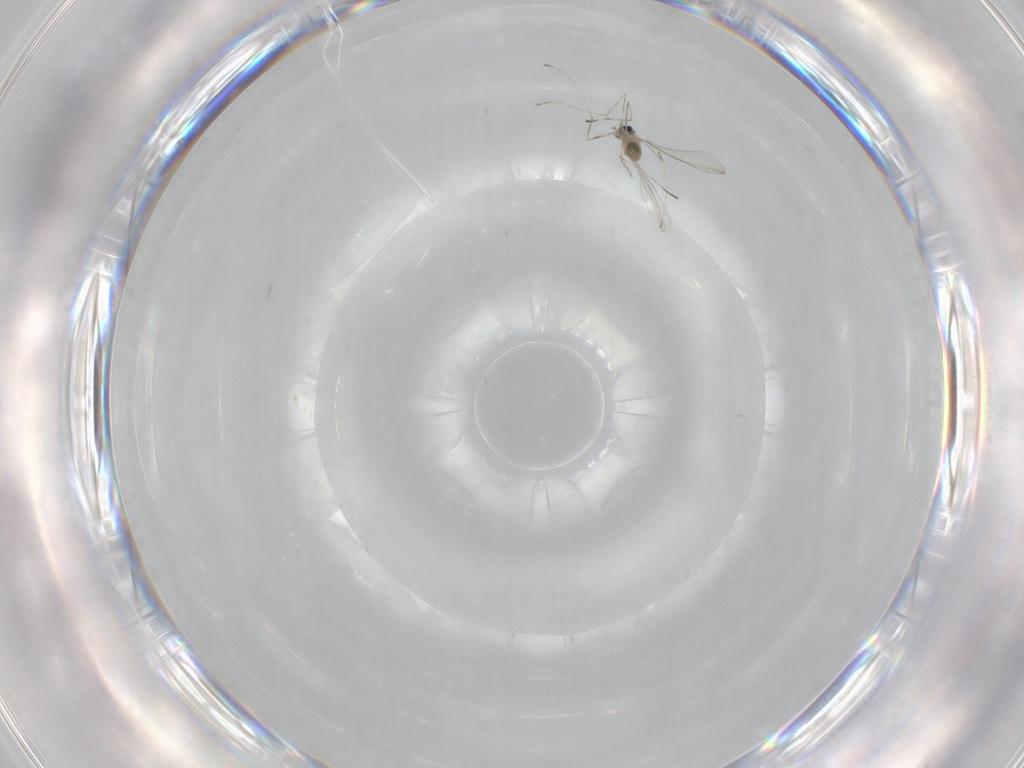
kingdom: Animalia
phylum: Arthropoda
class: Insecta
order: Diptera
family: Cecidomyiidae
